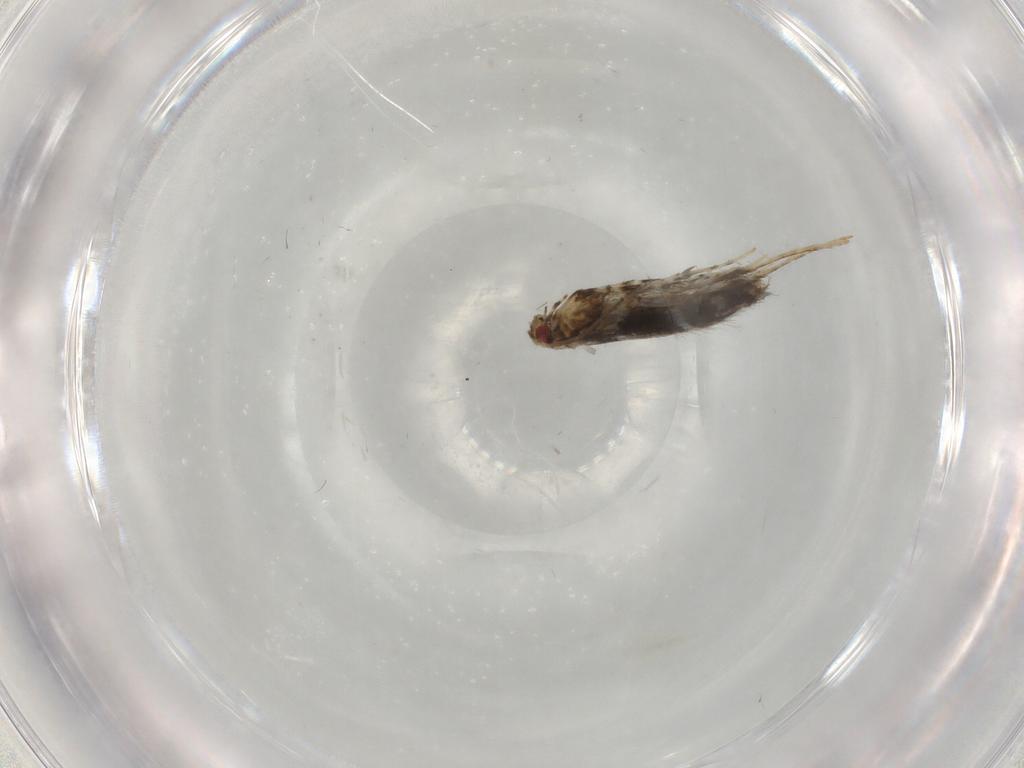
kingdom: Animalia
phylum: Arthropoda
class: Insecta
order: Lepidoptera
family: Gracillariidae
